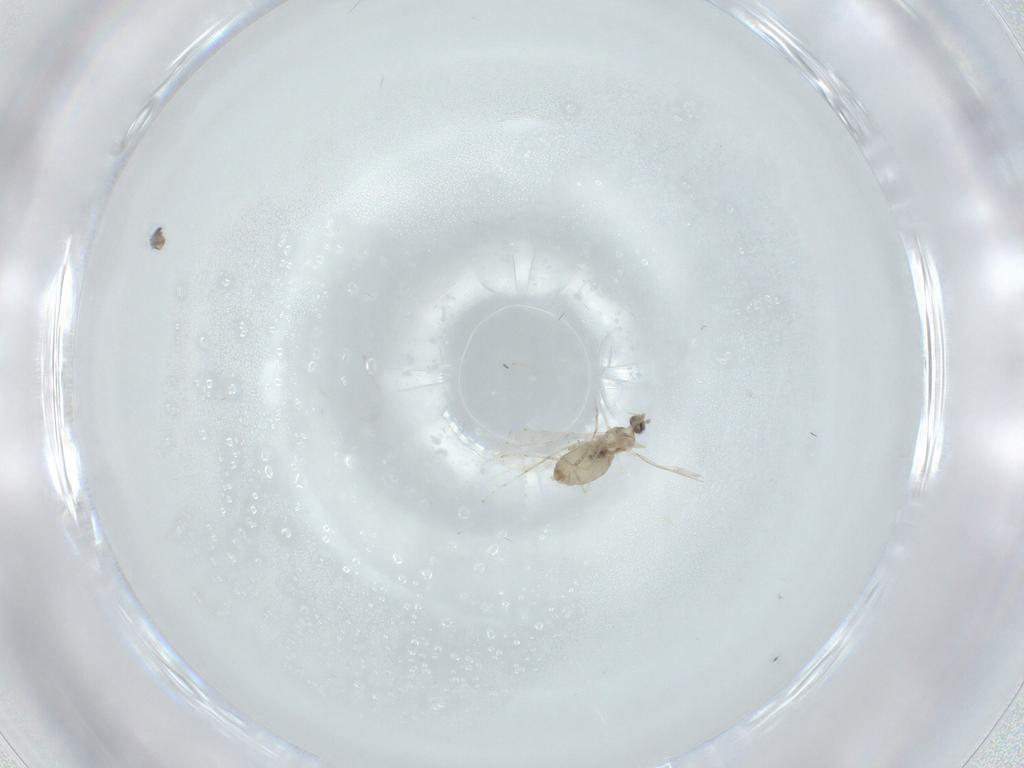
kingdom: Animalia
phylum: Arthropoda
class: Insecta
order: Diptera
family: Cecidomyiidae
